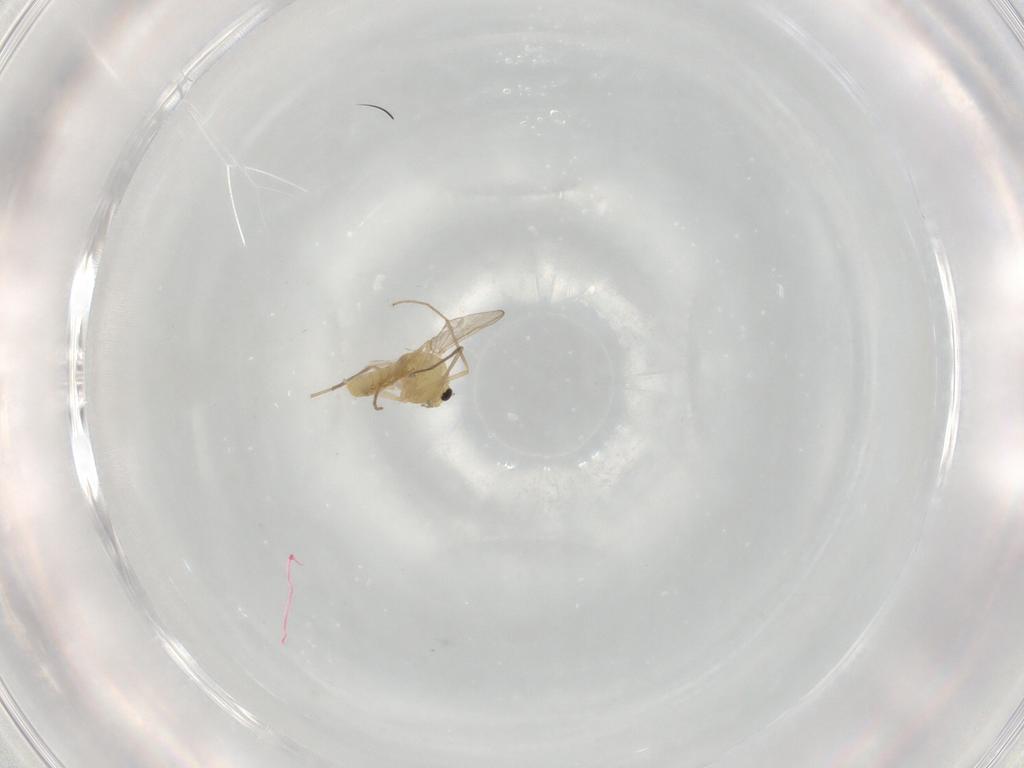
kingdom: Animalia
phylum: Arthropoda
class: Insecta
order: Diptera
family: Chironomidae
